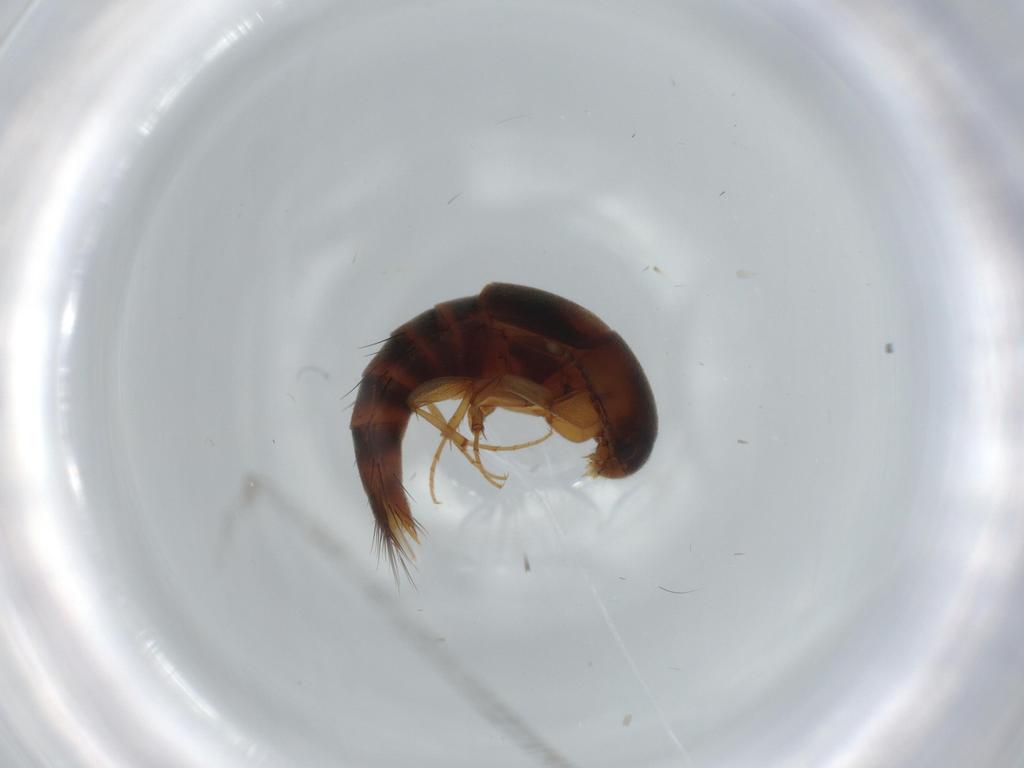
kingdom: Animalia
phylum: Arthropoda
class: Insecta
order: Coleoptera
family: Staphylinidae
